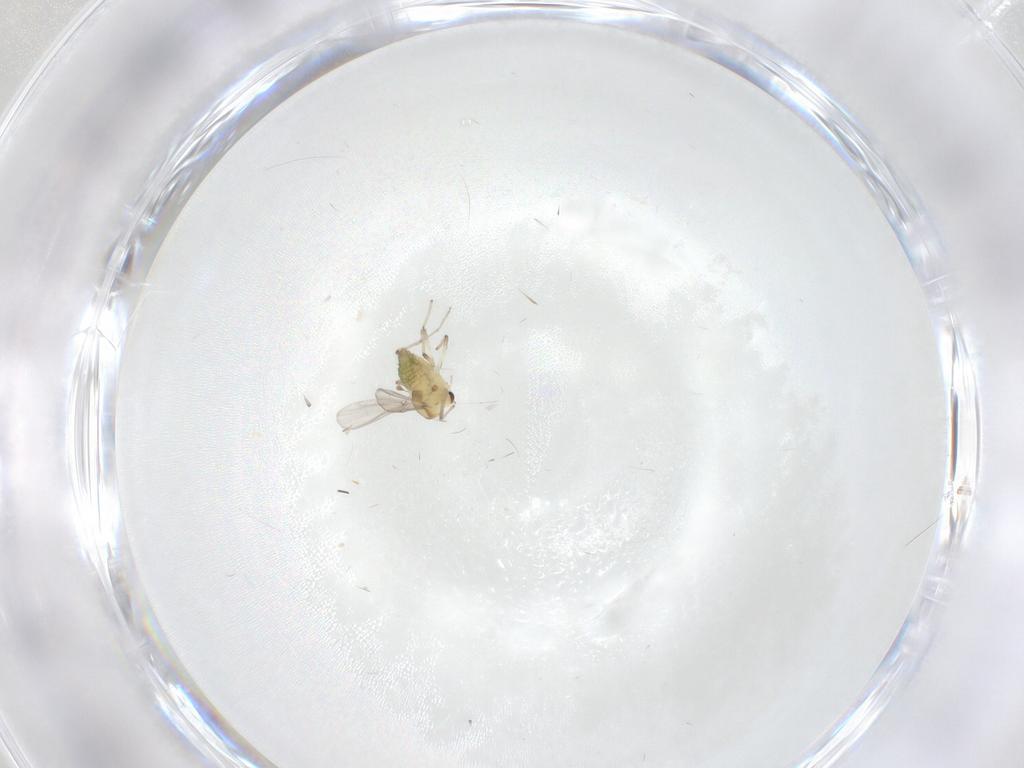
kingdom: Animalia
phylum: Arthropoda
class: Insecta
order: Diptera
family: Chironomidae
